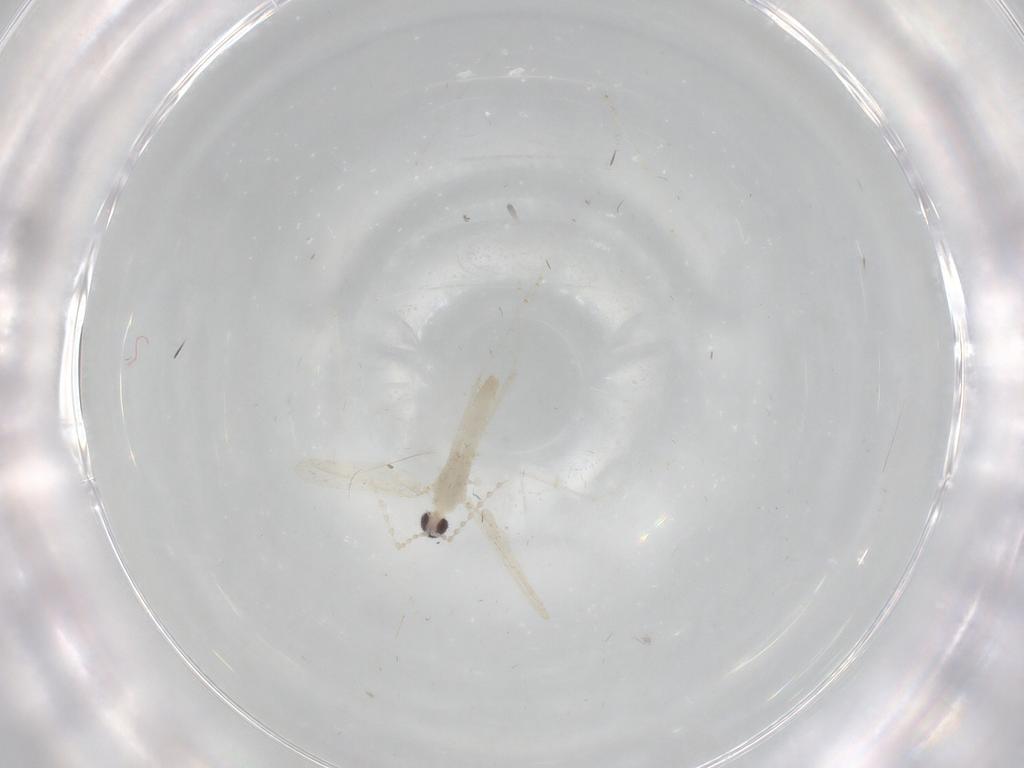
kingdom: Animalia
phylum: Arthropoda
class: Insecta
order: Diptera
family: Cecidomyiidae
